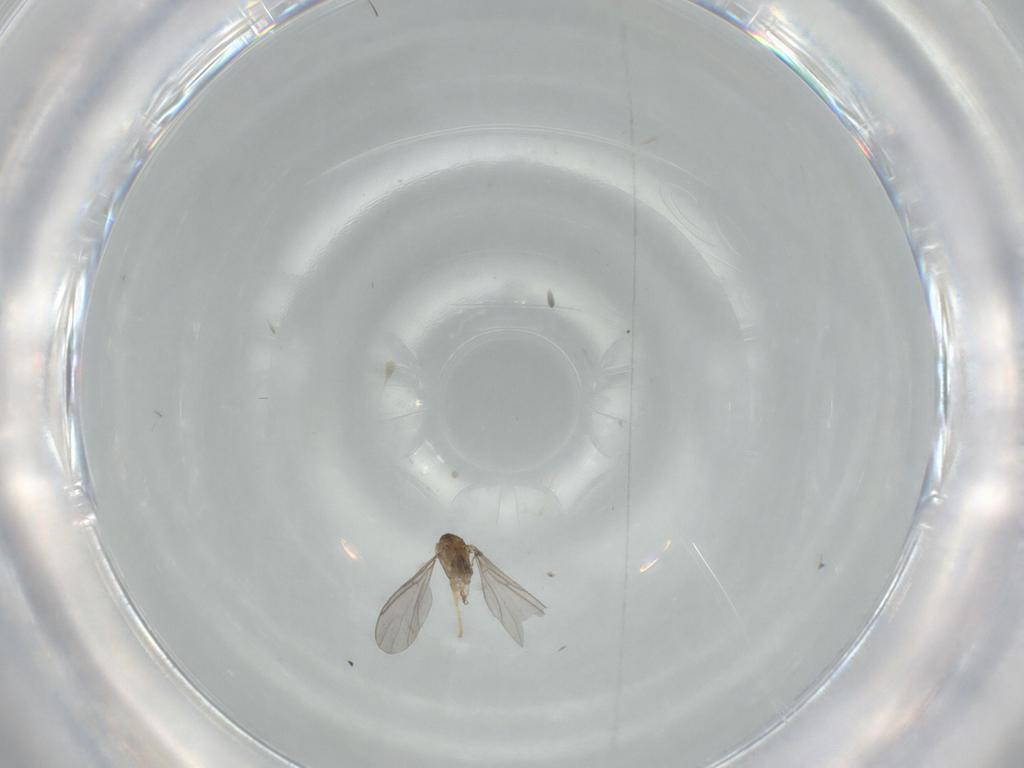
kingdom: Animalia
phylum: Arthropoda
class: Insecta
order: Diptera
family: Sciaridae
